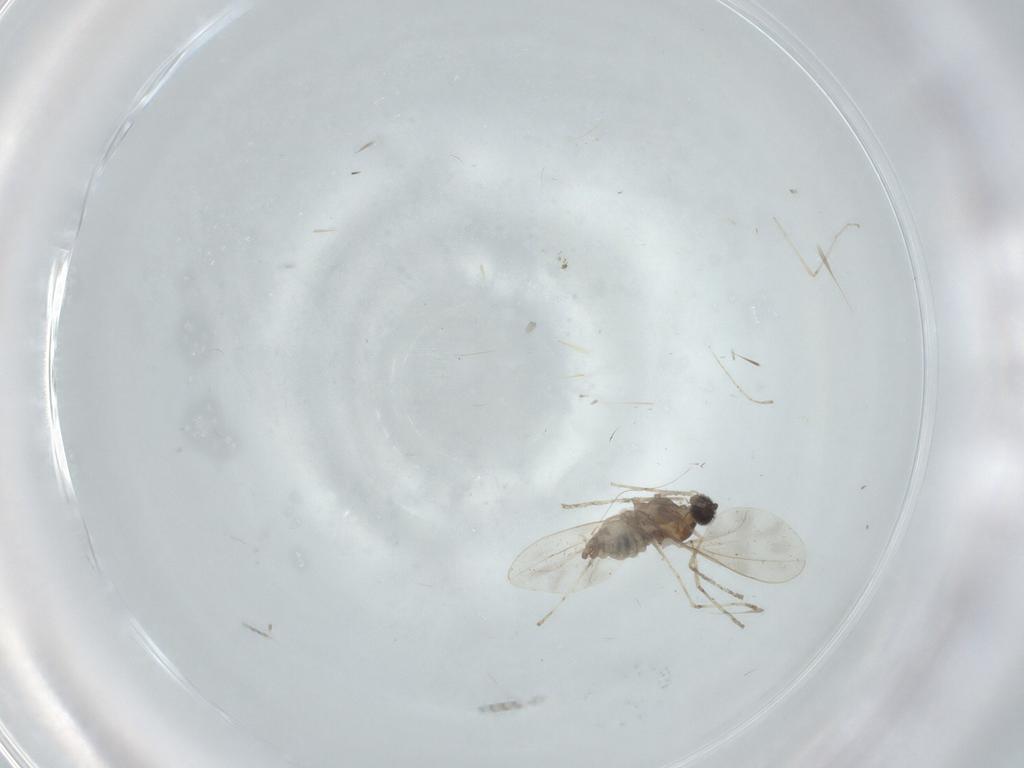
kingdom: Animalia
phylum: Arthropoda
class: Insecta
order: Diptera
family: Cecidomyiidae
